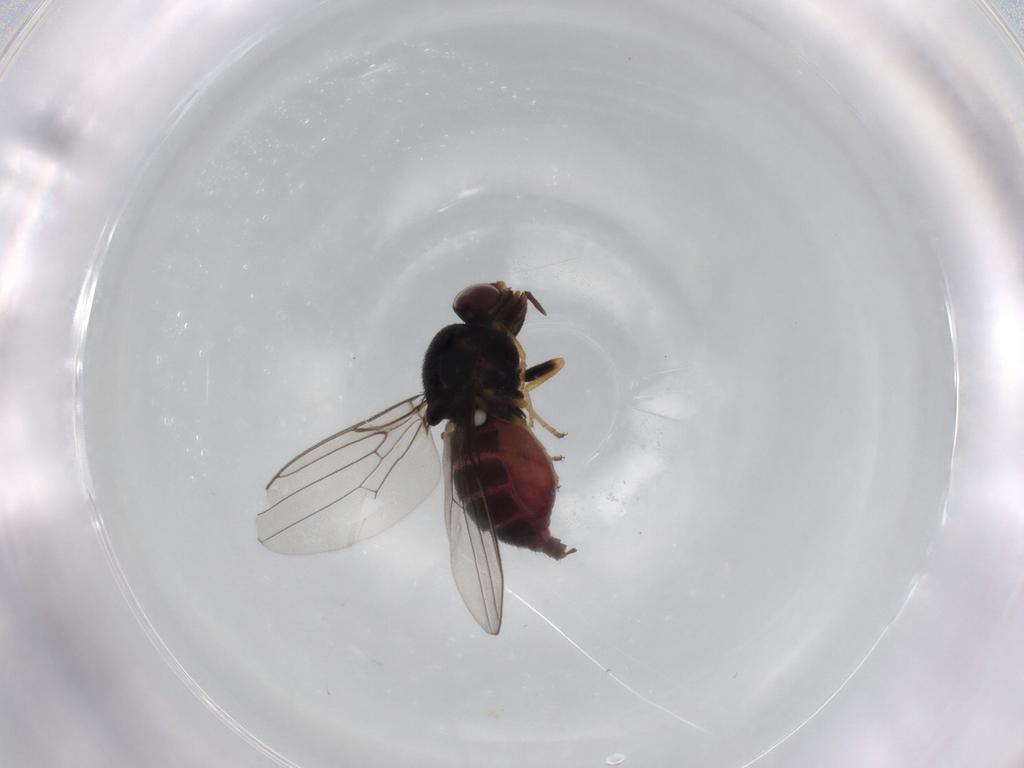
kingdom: Animalia
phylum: Arthropoda
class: Insecta
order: Diptera
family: Chloropidae
